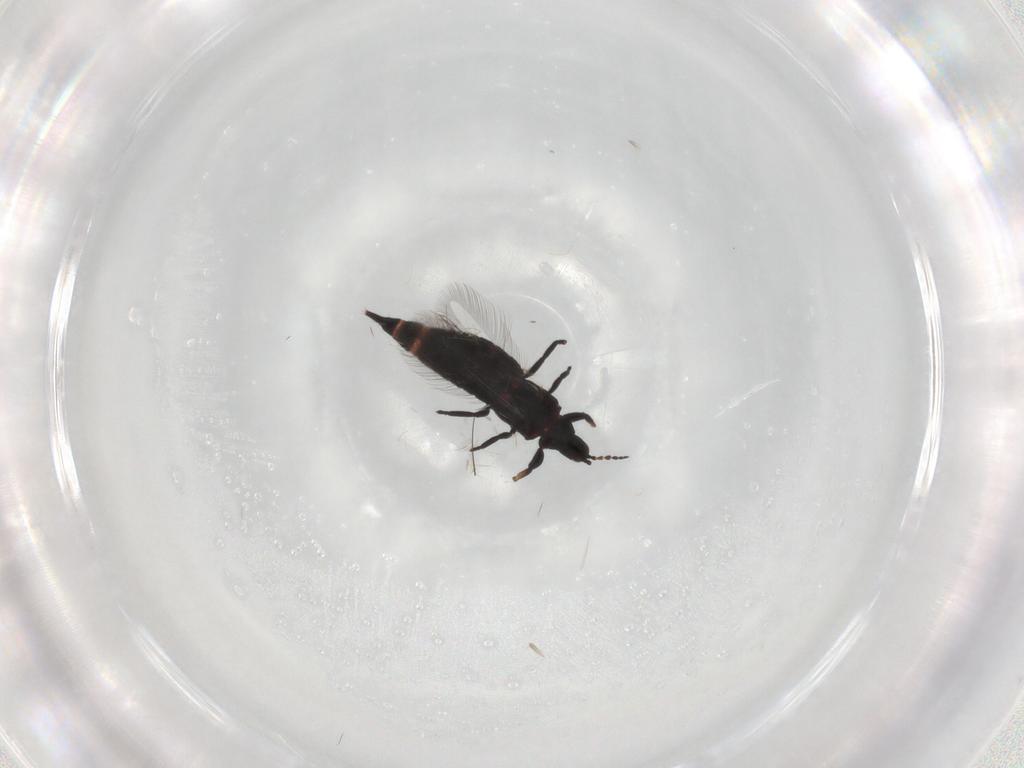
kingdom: Animalia
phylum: Arthropoda
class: Insecta
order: Thysanoptera
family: Phlaeothripidae
